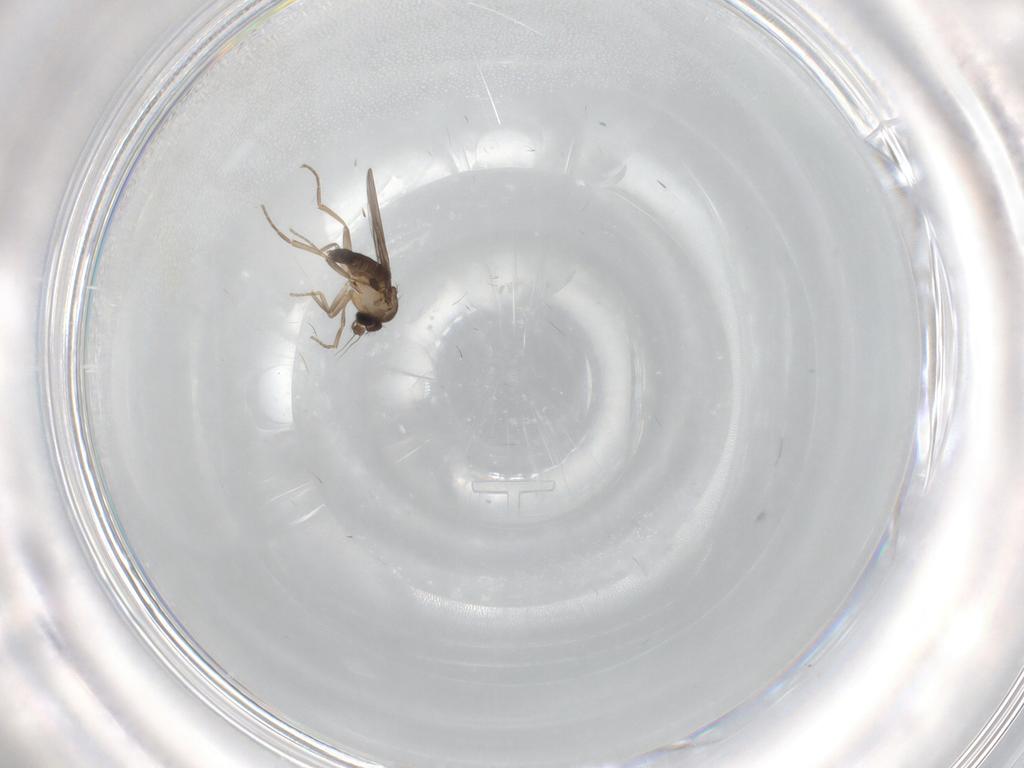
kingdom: Animalia
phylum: Arthropoda
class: Insecta
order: Diptera
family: Phoridae
